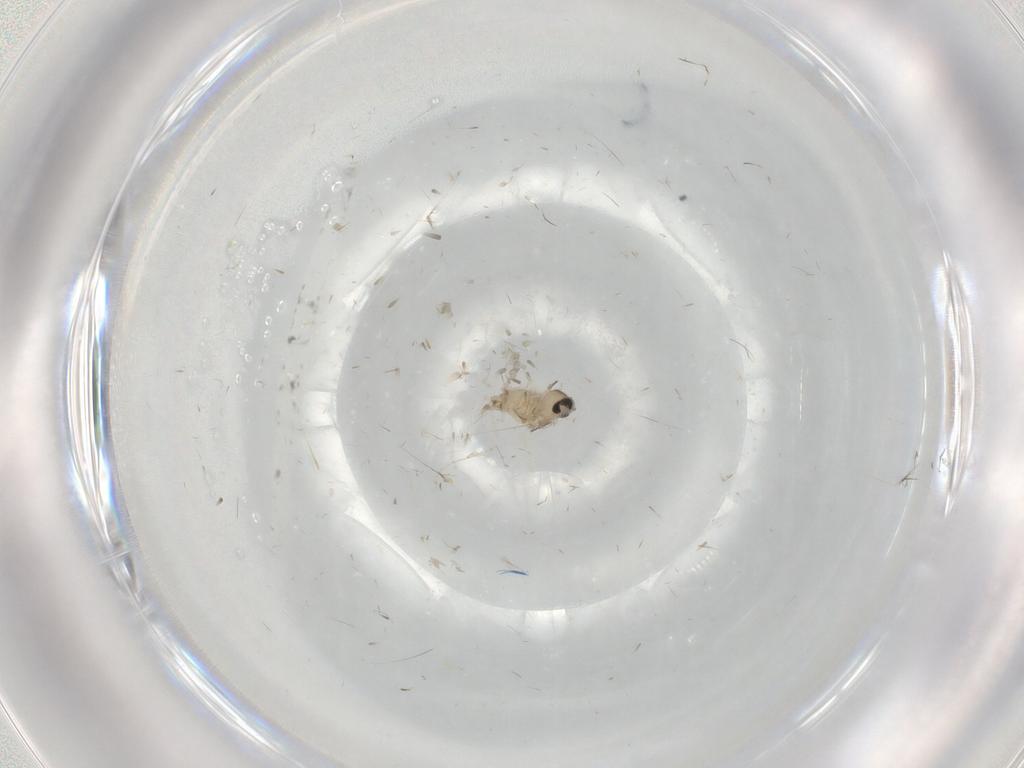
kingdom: Animalia
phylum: Arthropoda
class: Insecta
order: Diptera
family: Cecidomyiidae
